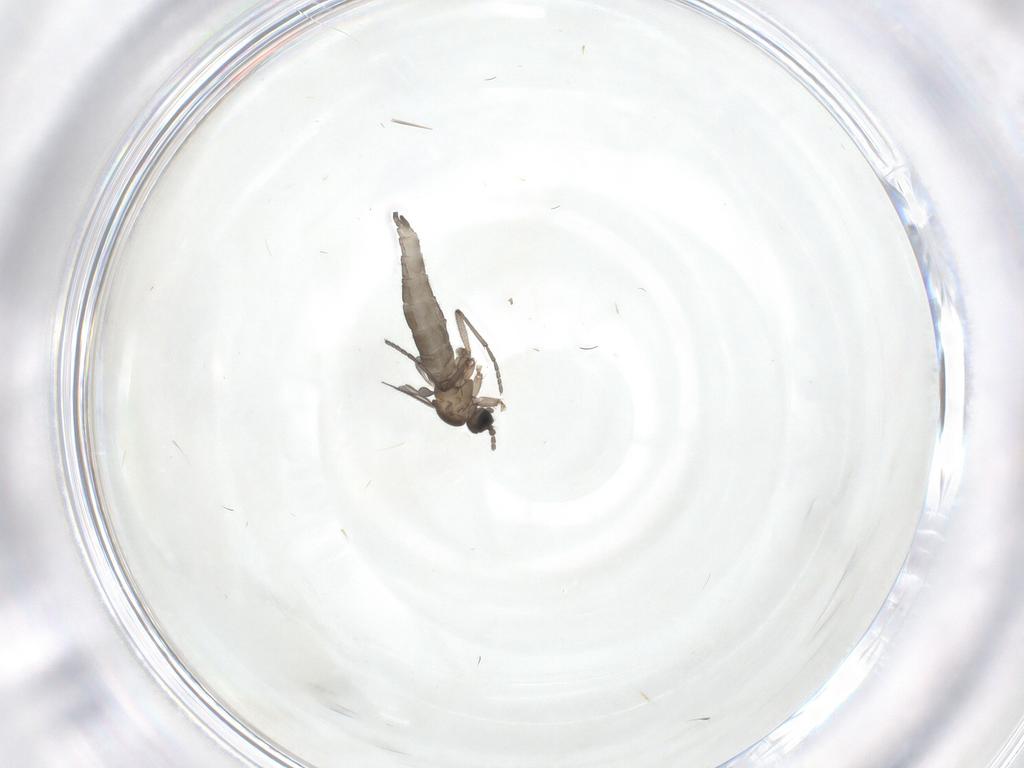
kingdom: Animalia
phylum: Arthropoda
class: Insecta
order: Diptera
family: Sciaridae
